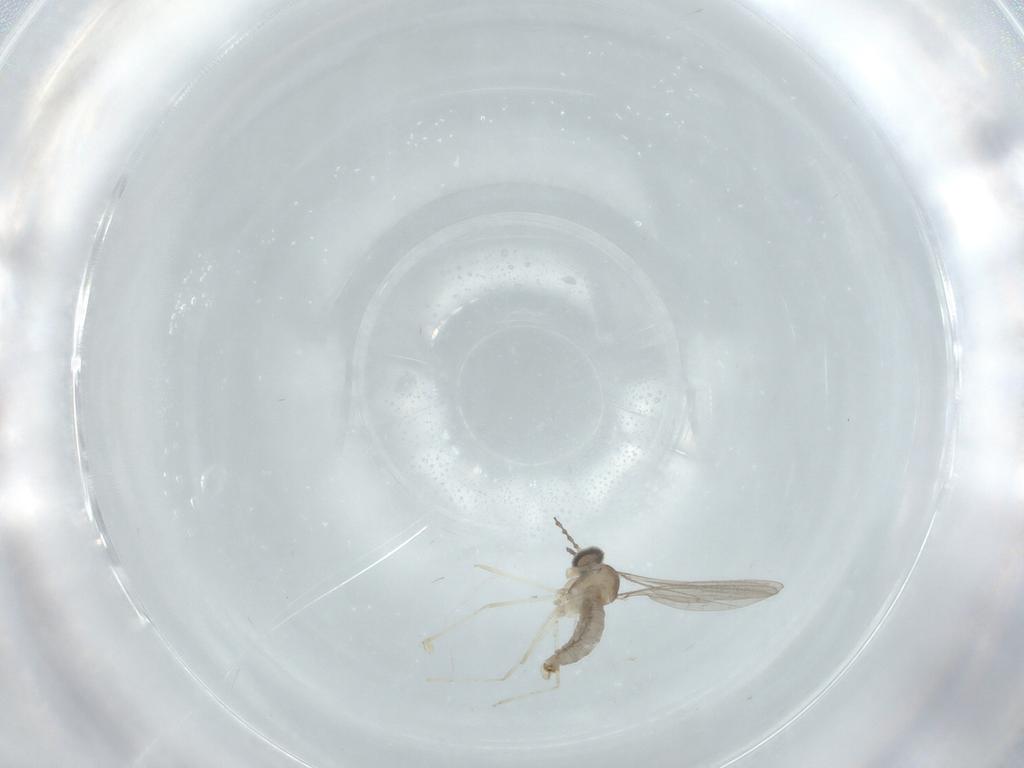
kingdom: Animalia
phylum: Arthropoda
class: Insecta
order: Diptera
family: Cecidomyiidae
